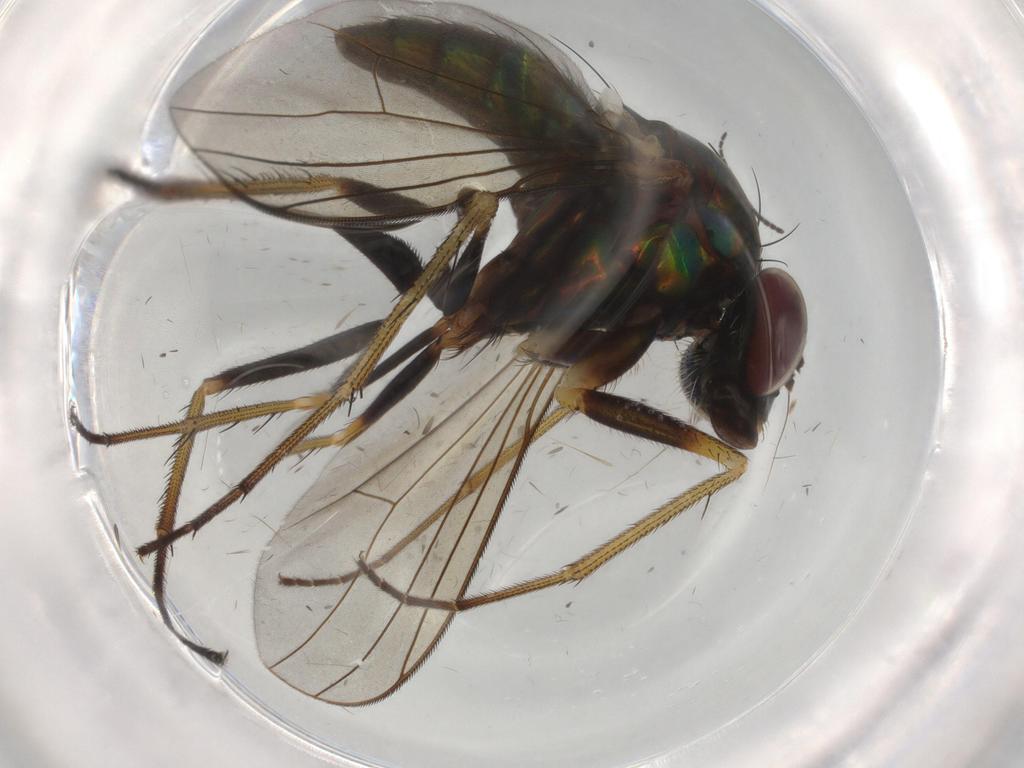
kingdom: Animalia
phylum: Arthropoda
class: Insecta
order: Diptera
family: Dolichopodidae
